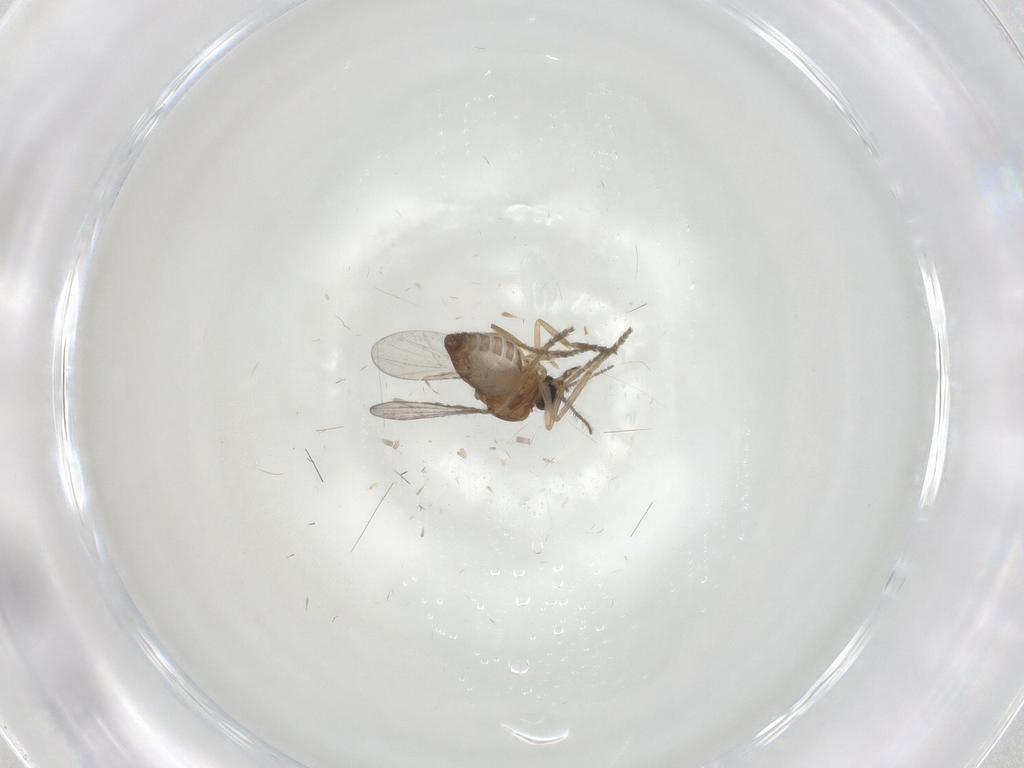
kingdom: Animalia
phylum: Arthropoda
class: Insecta
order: Diptera
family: Ceratopogonidae
